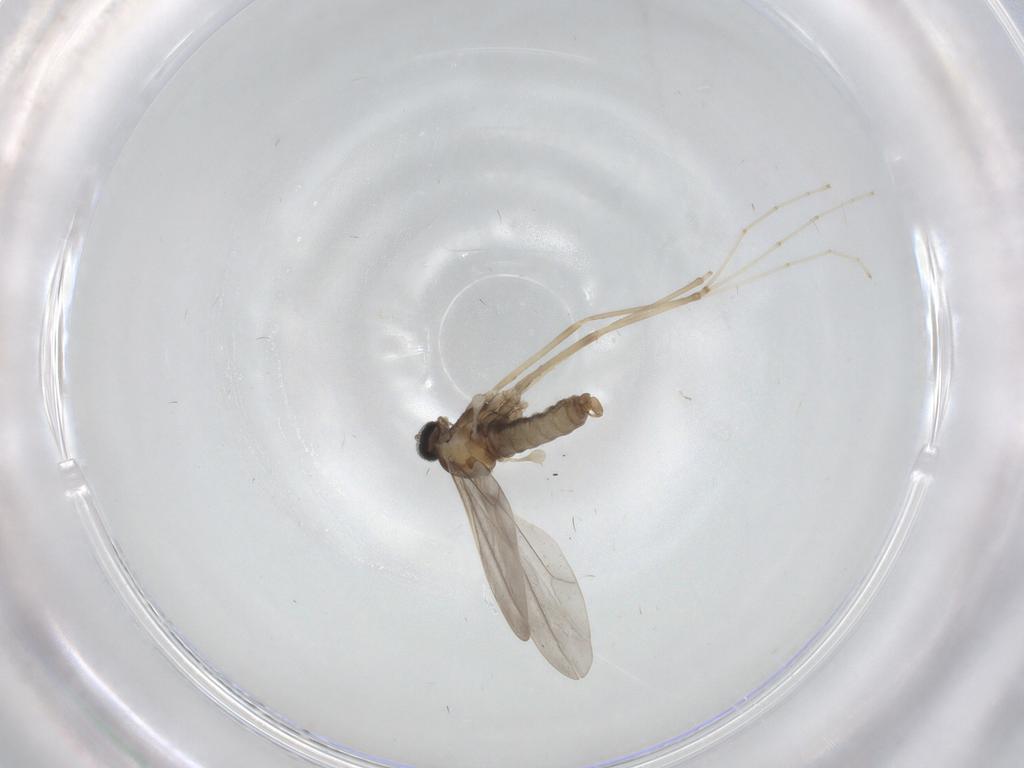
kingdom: Animalia
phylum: Arthropoda
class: Insecta
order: Diptera
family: Cecidomyiidae
